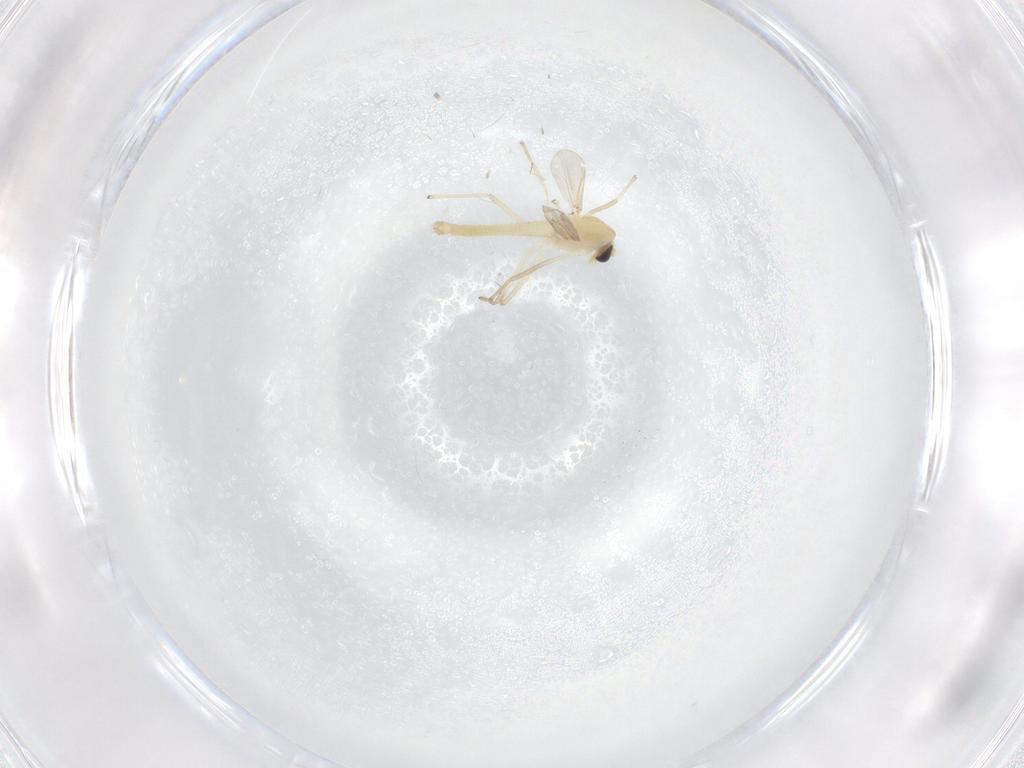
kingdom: Animalia
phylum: Arthropoda
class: Insecta
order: Diptera
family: Chironomidae
